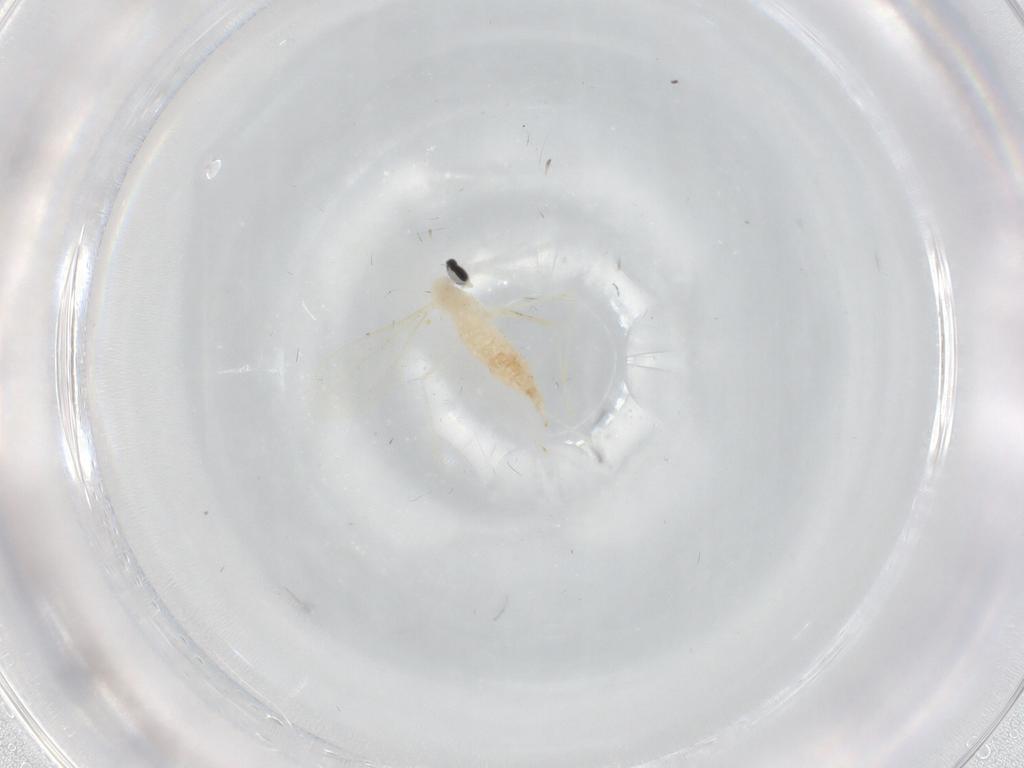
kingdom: Animalia
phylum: Arthropoda
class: Insecta
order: Diptera
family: Cecidomyiidae
